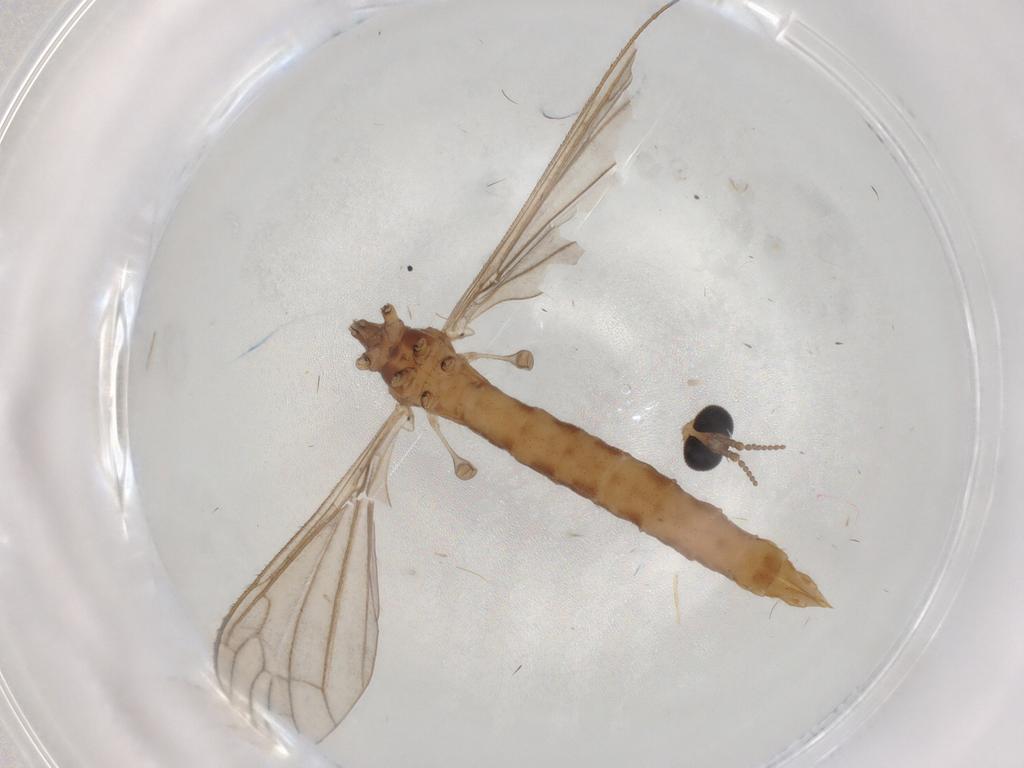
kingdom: Animalia
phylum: Arthropoda
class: Insecta
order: Diptera
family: Limoniidae
